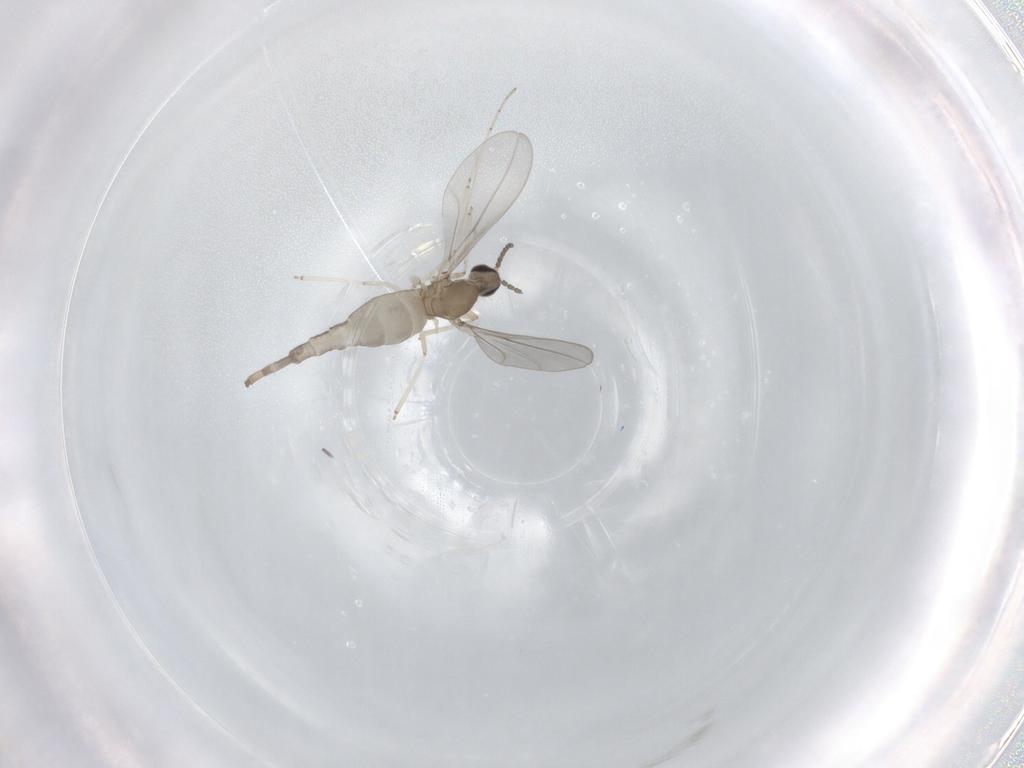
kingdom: Animalia
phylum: Arthropoda
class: Insecta
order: Diptera
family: Cecidomyiidae
